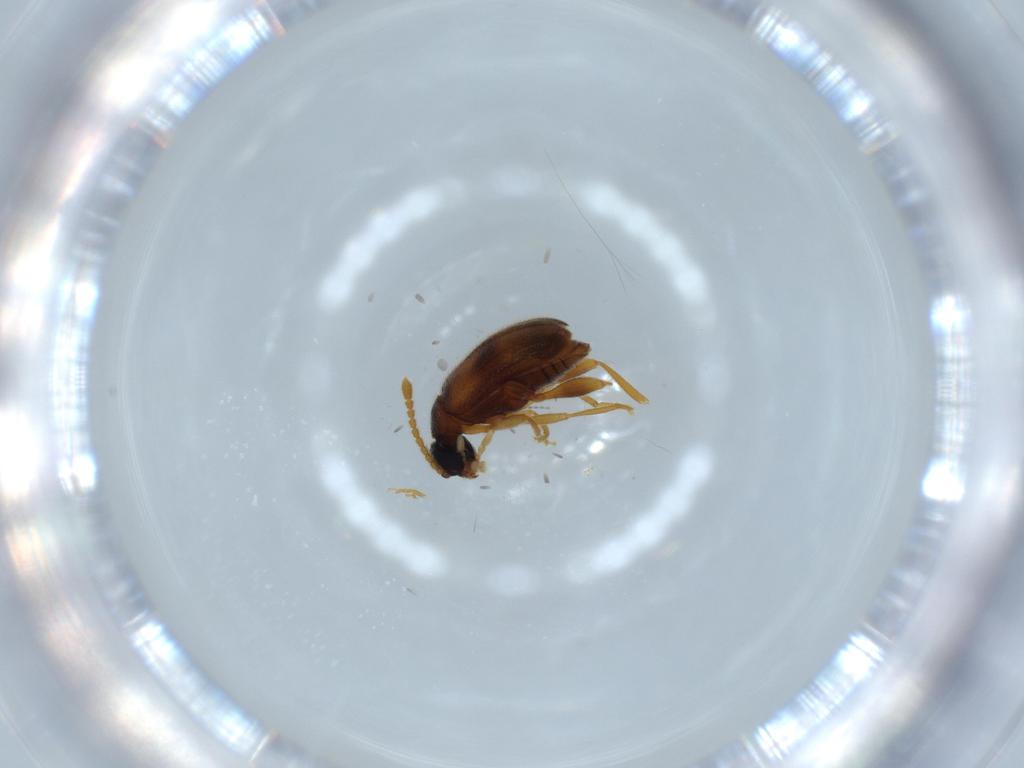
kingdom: Animalia
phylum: Arthropoda
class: Insecta
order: Coleoptera
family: Aderidae
